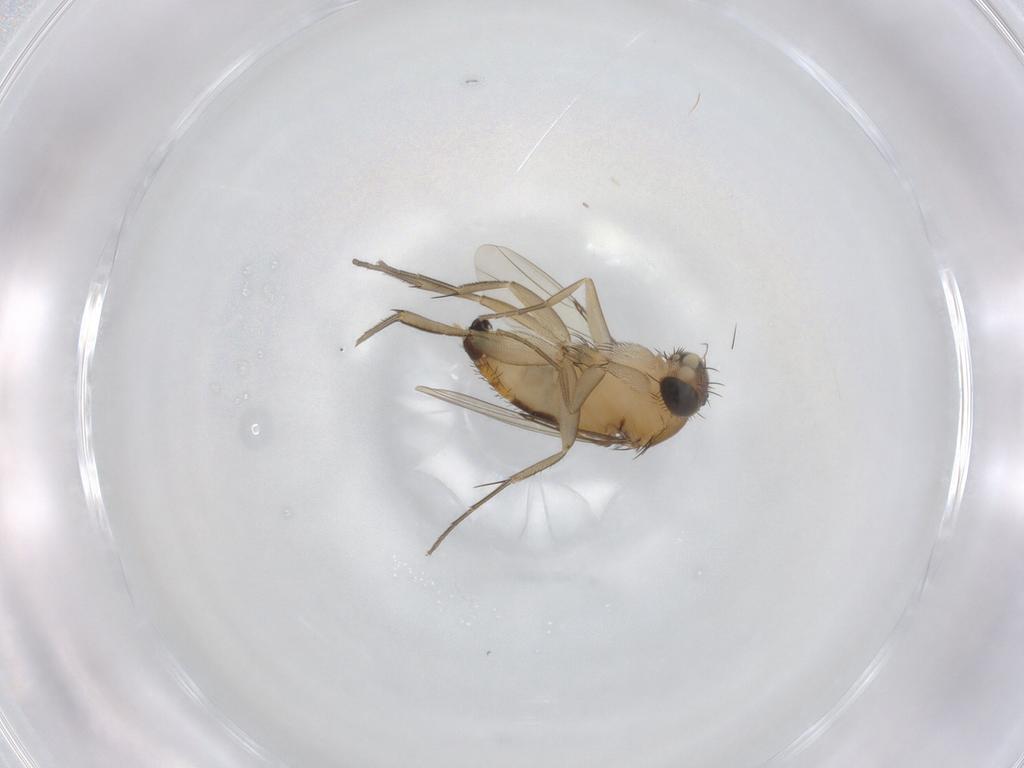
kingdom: Animalia
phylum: Arthropoda
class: Insecta
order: Diptera
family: Phoridae
